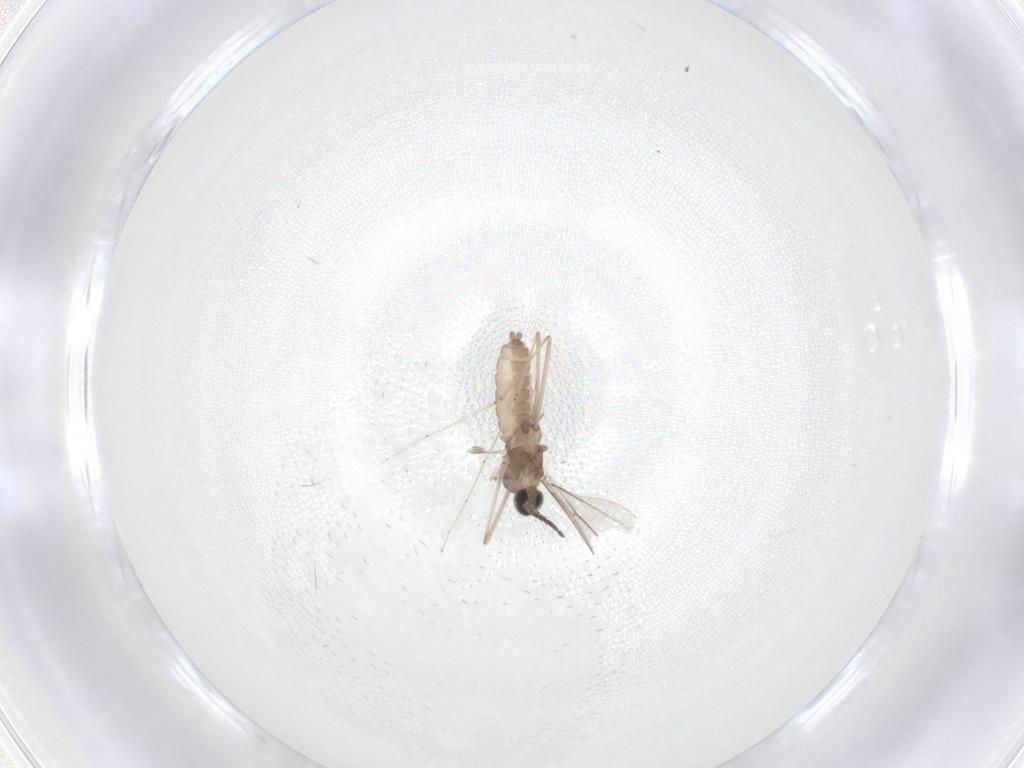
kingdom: Animalia
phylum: Arthropoda
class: Insecta
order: Diptera
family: Cecidomyiidae
